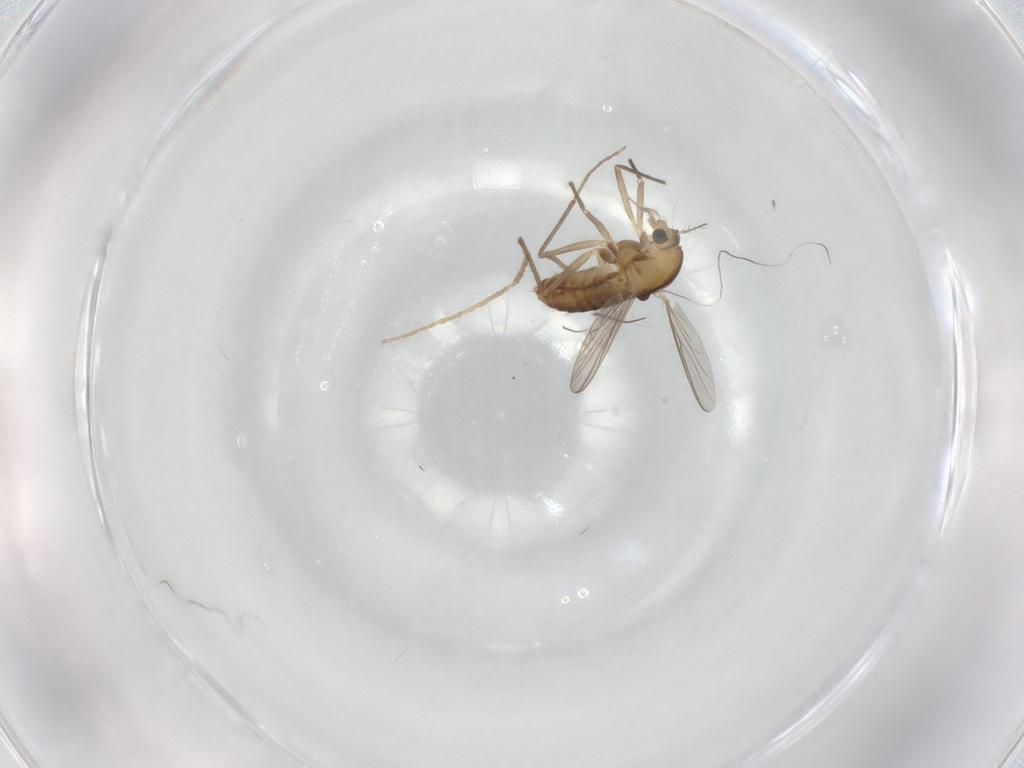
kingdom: Animalia
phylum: Arthropoda
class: Insecta
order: Diptera
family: Chironomidae
